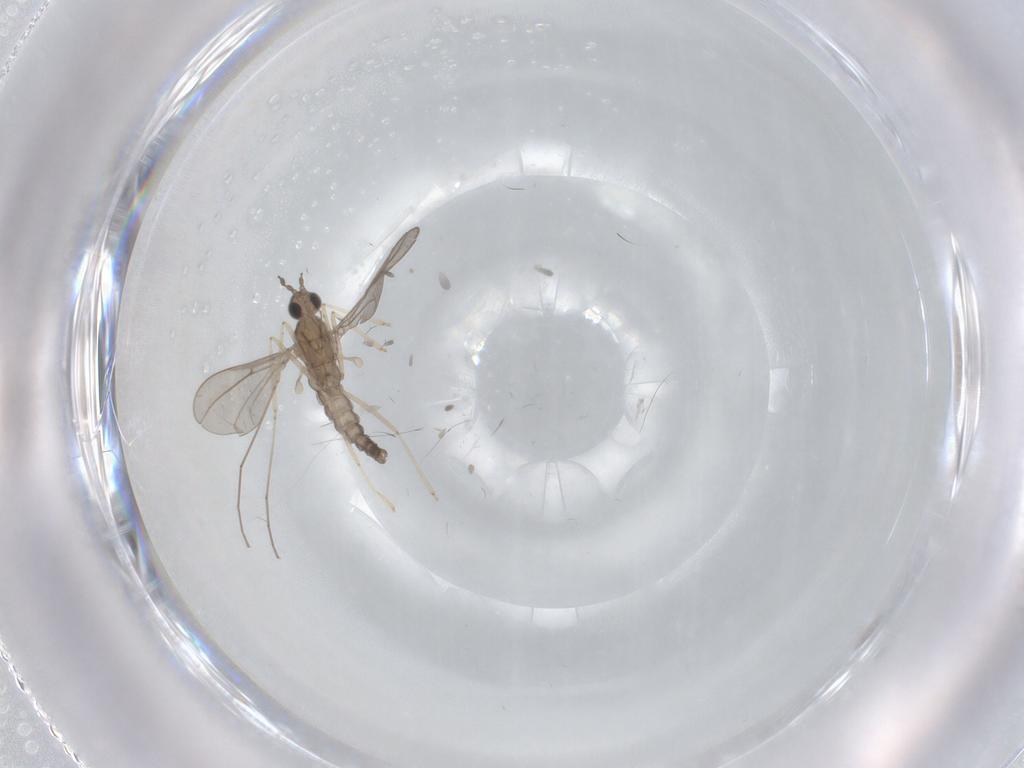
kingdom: Animalia
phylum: Arthropoda
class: Insecta
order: Diptera
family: Cecidomyiidae
